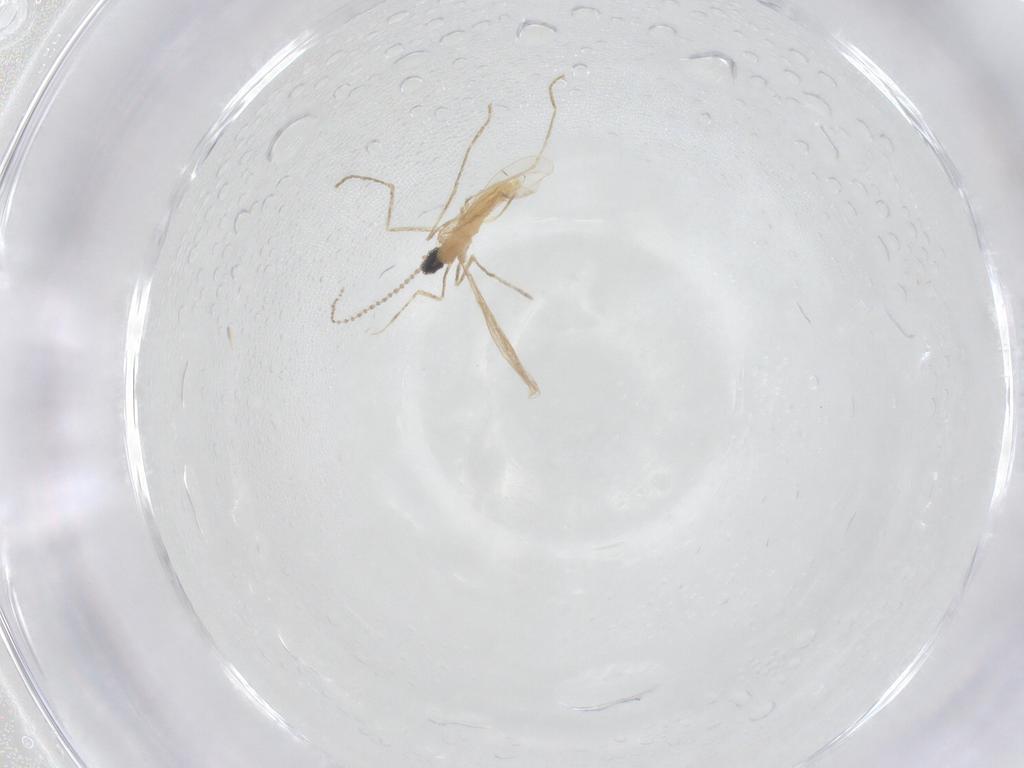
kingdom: Animalia
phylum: Arthropoda
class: Insecta
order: Diptera
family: Cecidomyiidae
